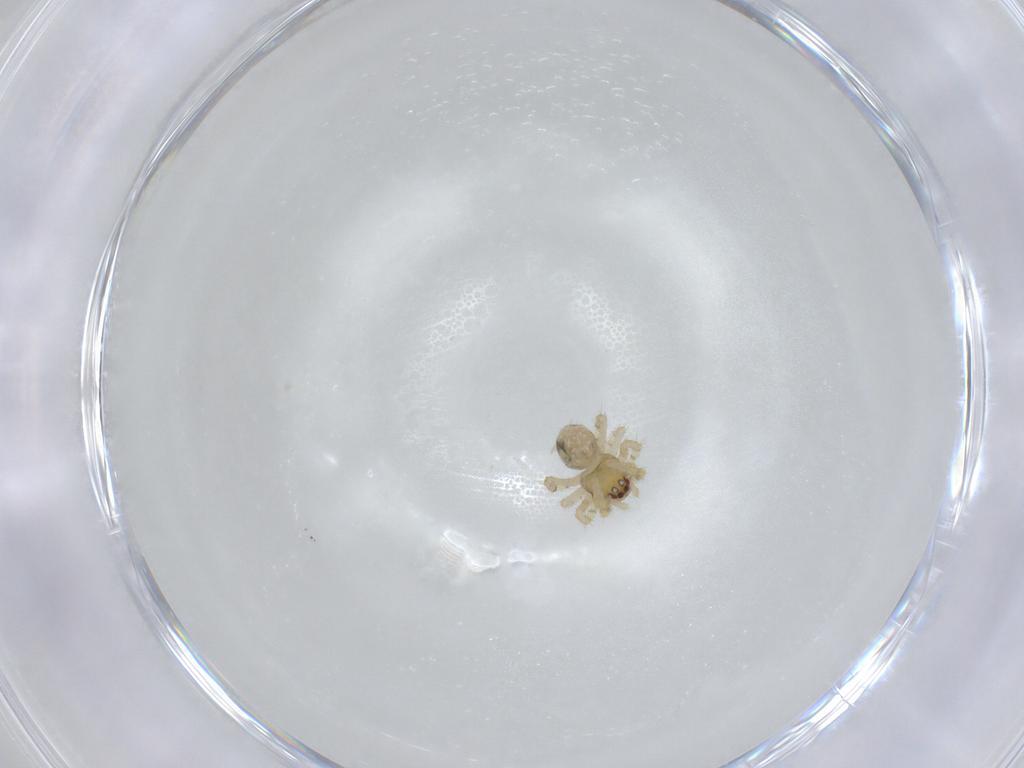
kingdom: Animalia
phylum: Arthropoda
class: Arachnida
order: Araneae
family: Theridiidae
